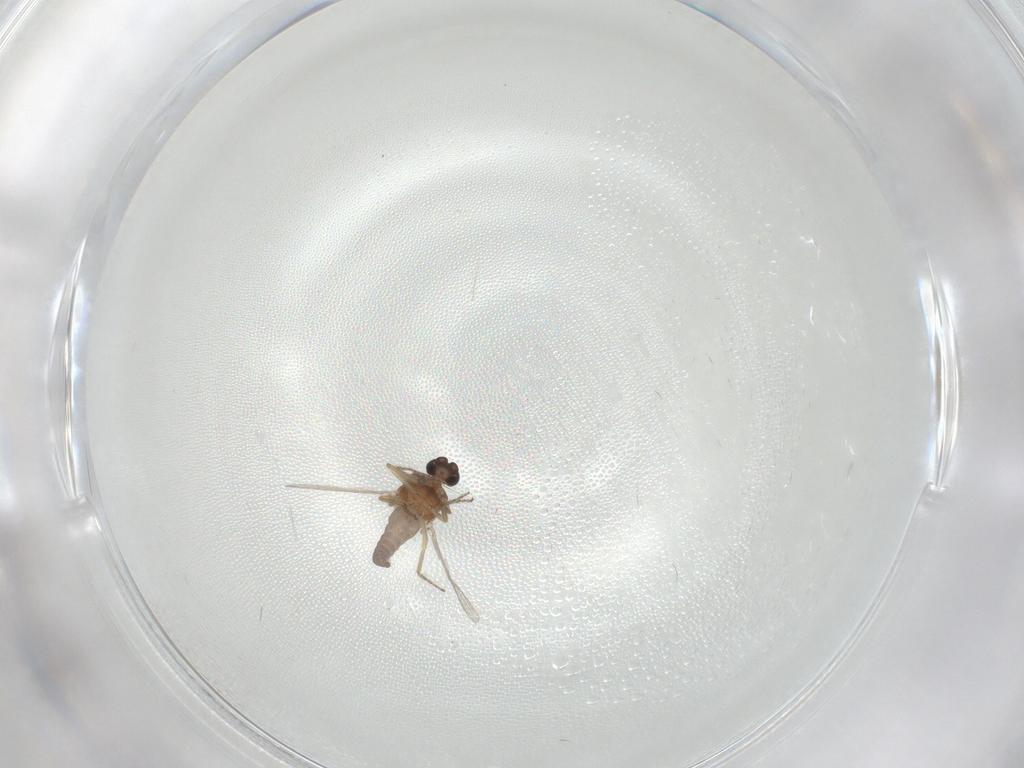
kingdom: Animalia
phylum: Arthropoda
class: Insecta
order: Diptera
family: Ceratopogonidae
